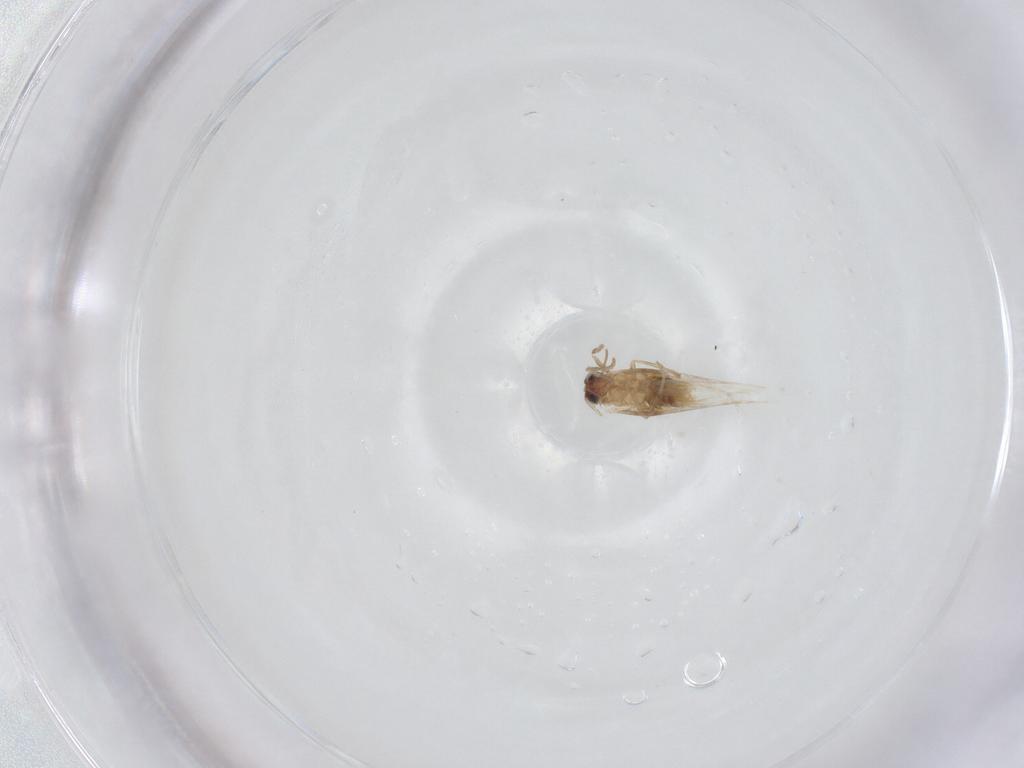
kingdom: Animalia
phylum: Arthropoda
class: Insecta
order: Lepidoptera
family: Nepticulidae
